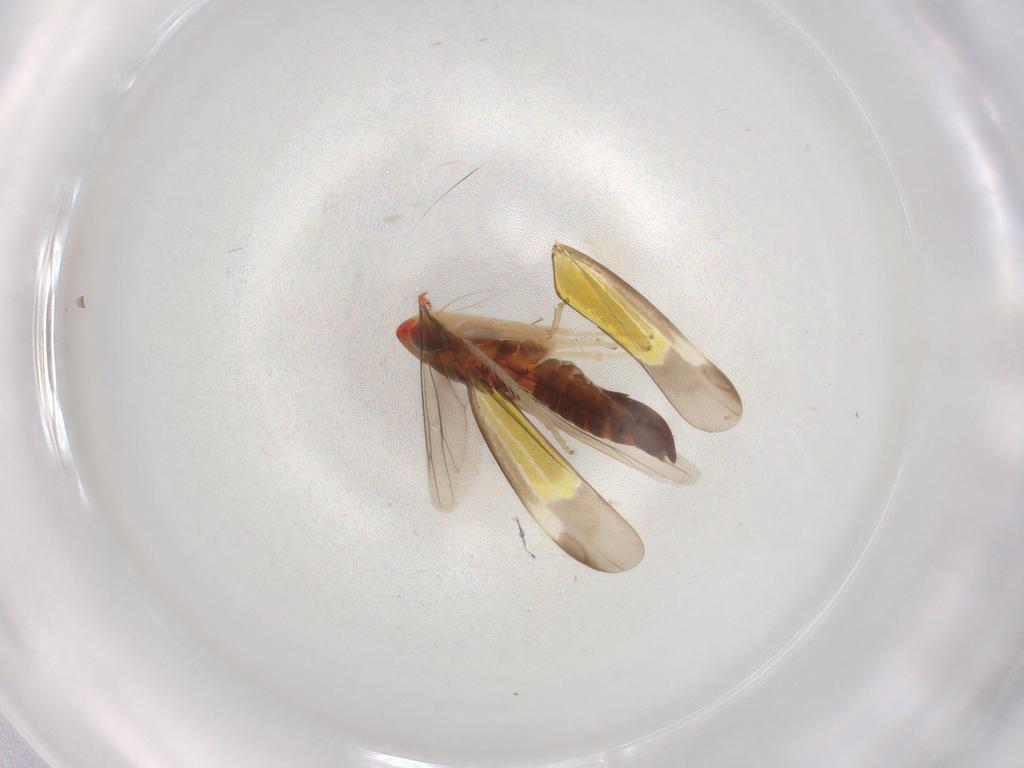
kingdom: Animalia
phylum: Arthropoda
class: Insecta
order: Hemiptera
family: Cicadellidae
